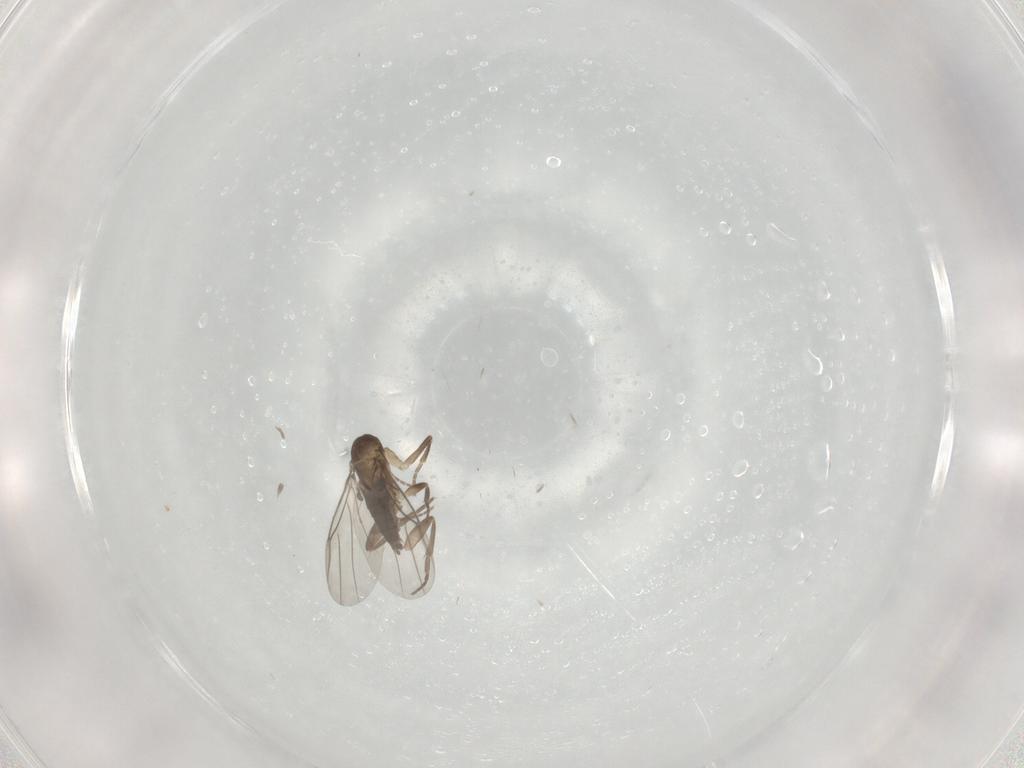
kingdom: Animalia
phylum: Arthropoda
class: Insecta
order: Diptera
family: Phoridae
